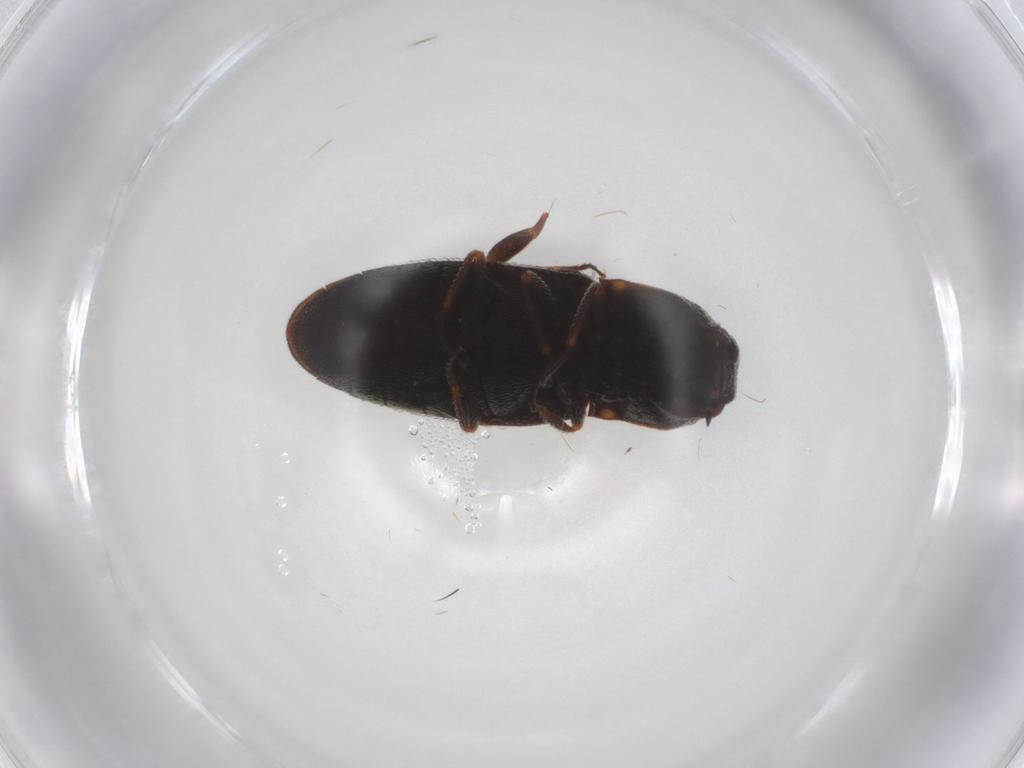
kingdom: Animalia
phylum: Arthropoda
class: Insecta
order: Coleoptera
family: Elateridae
